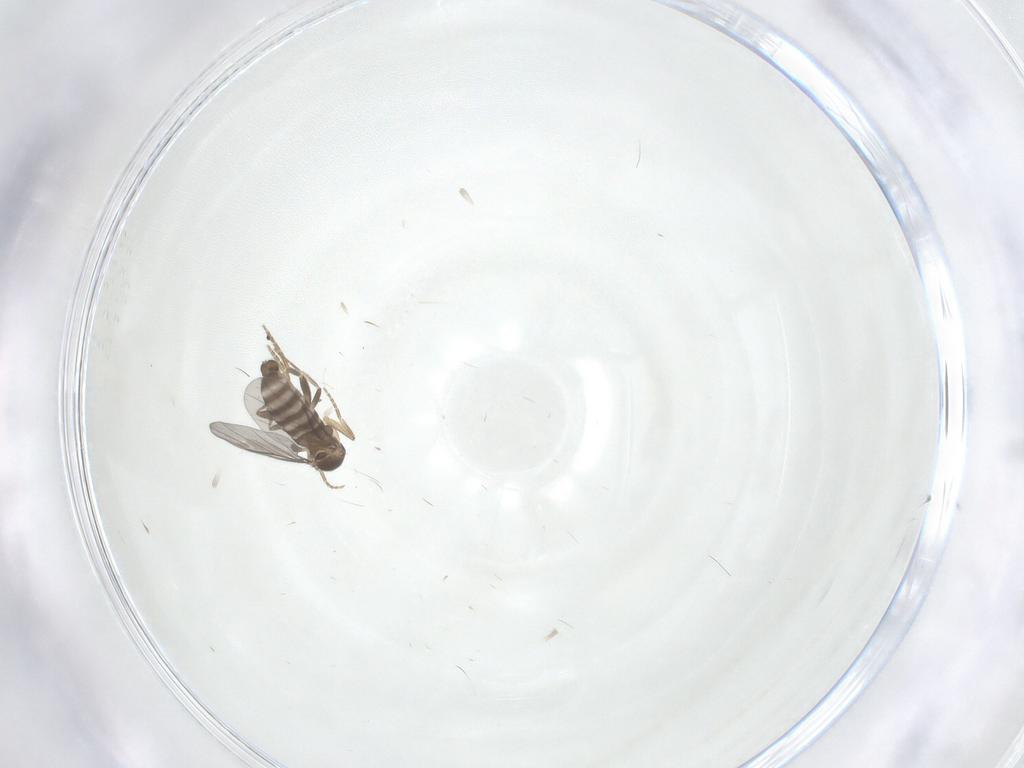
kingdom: Animalia
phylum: Arthropoda
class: Insecta
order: Diptera
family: Phoridae
